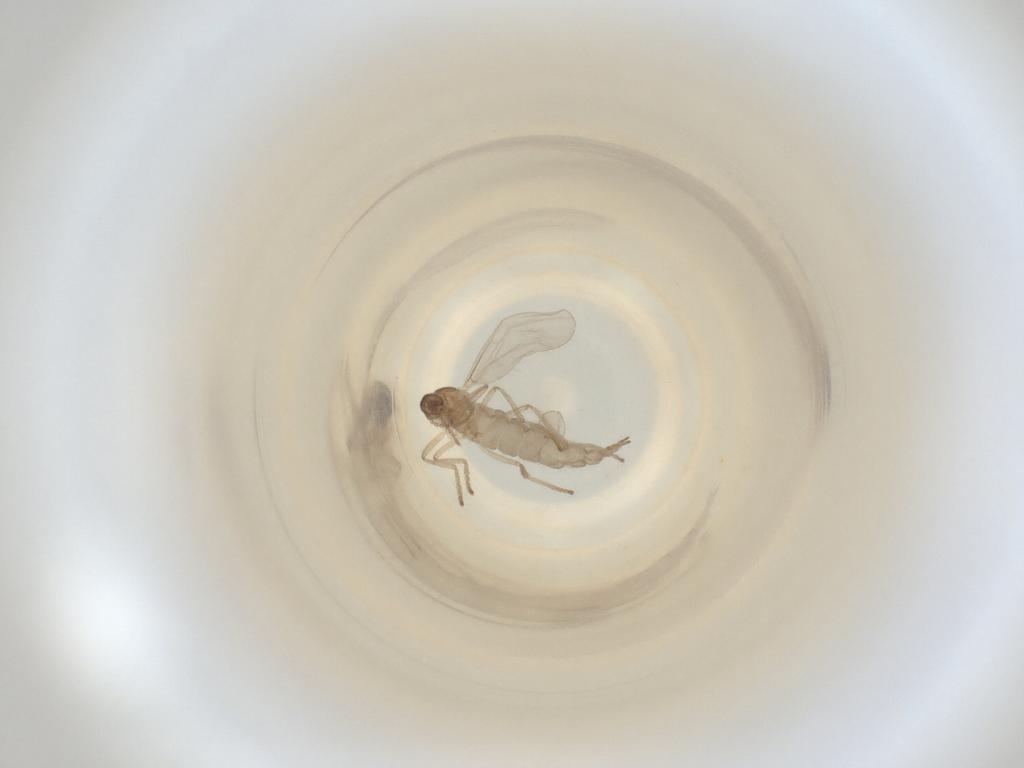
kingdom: Animalia
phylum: Arthropoda
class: Insecta
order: Diptera
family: Cecidomyiidae
